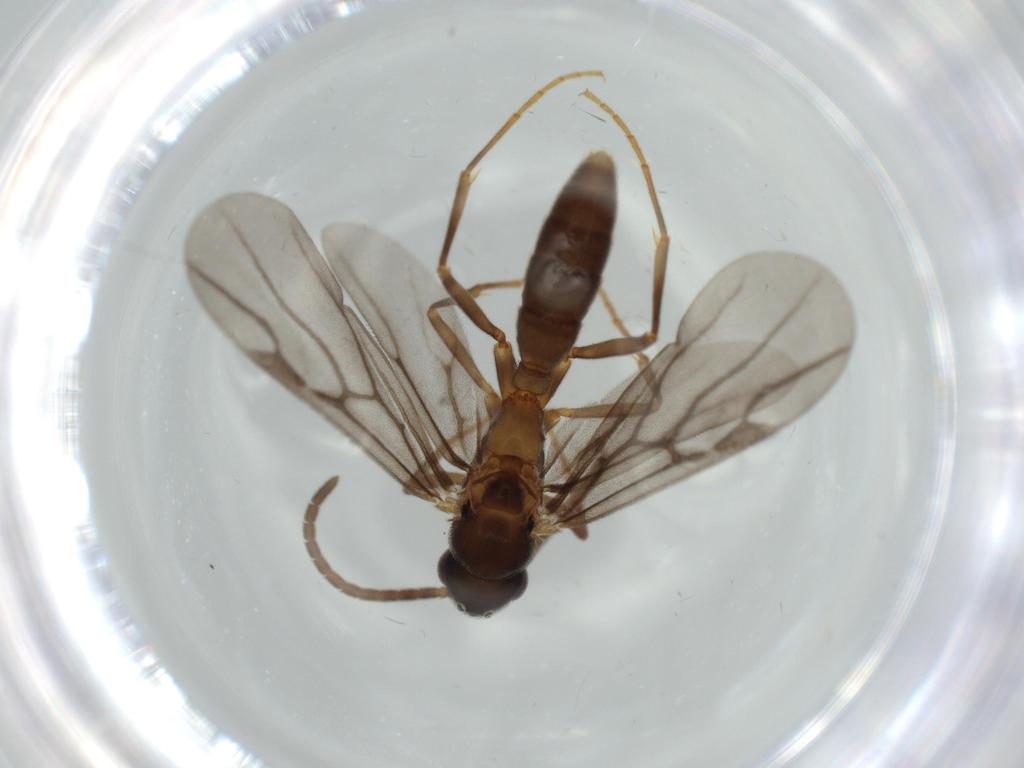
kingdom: Animalia
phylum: Arthropoda
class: Insecta
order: Hymenoptera
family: Formicidae
